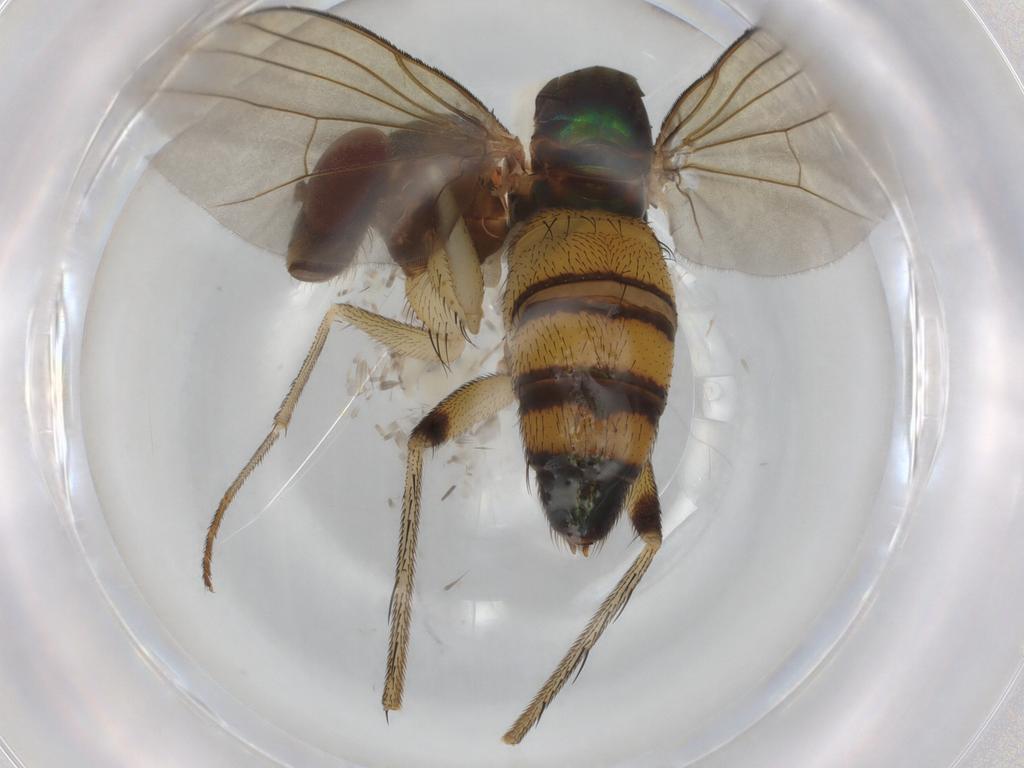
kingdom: Animalia
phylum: Arthropoda
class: Insecta
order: Diptera
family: Dolichopodidae
